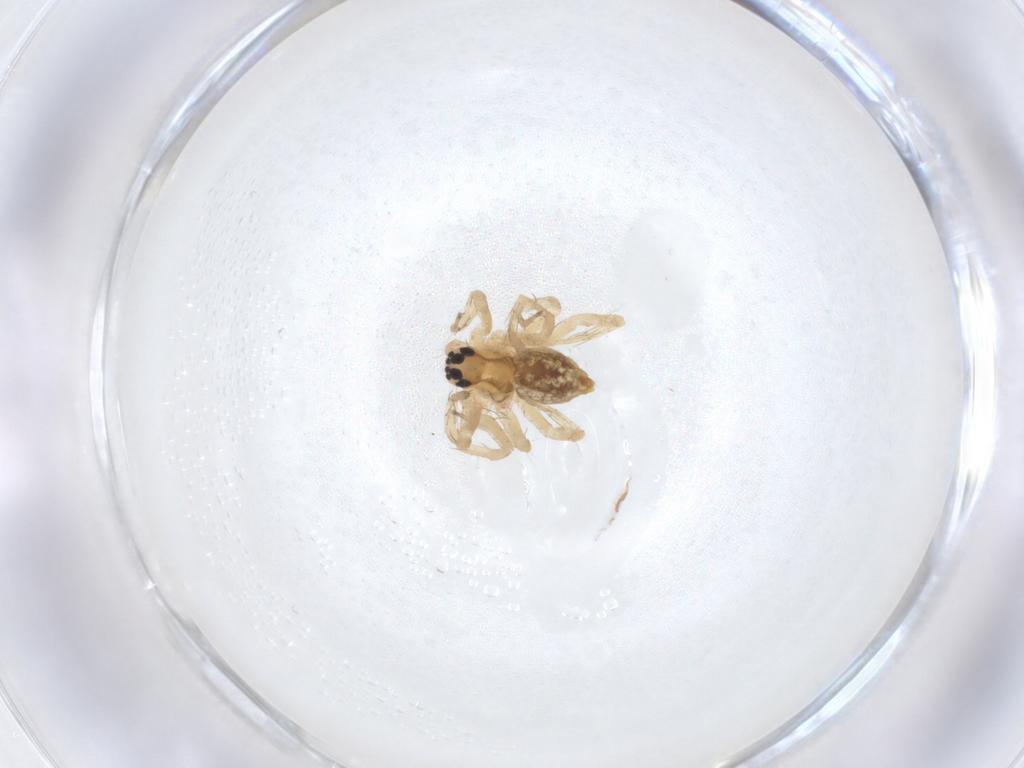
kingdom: Animalia
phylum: Arthropoda
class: Arachnida
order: Araneae
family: Pisauridae
